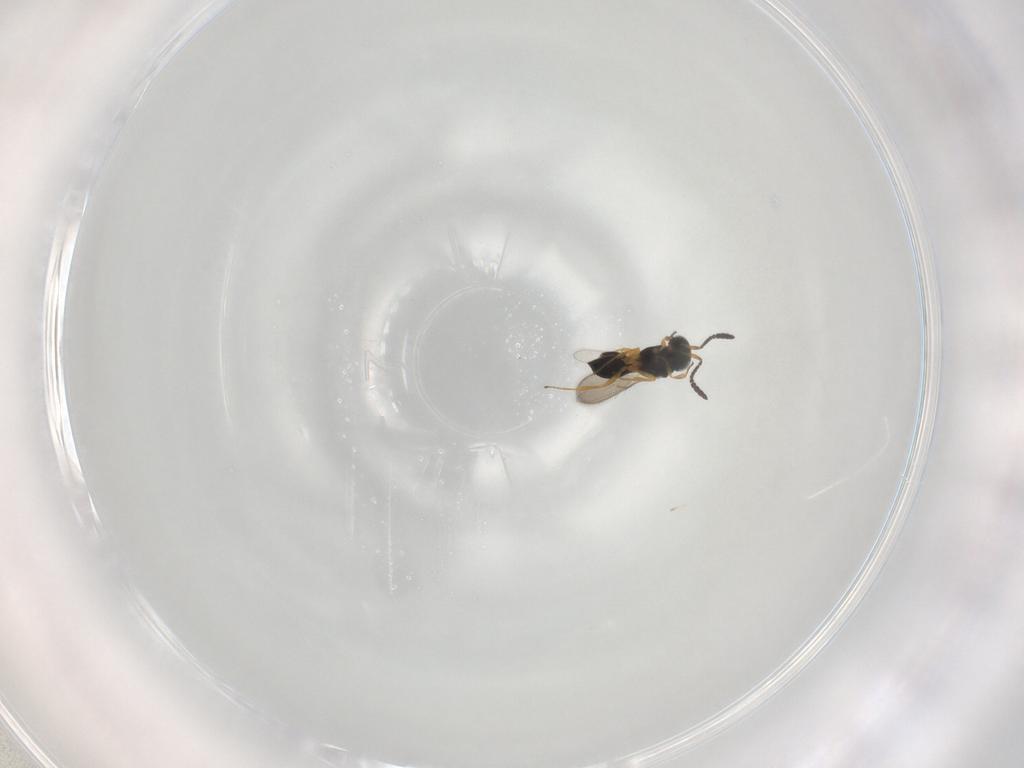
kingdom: Animalia
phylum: Arthropoda
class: Insecta
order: Hymenoptera
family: Scelionidae
